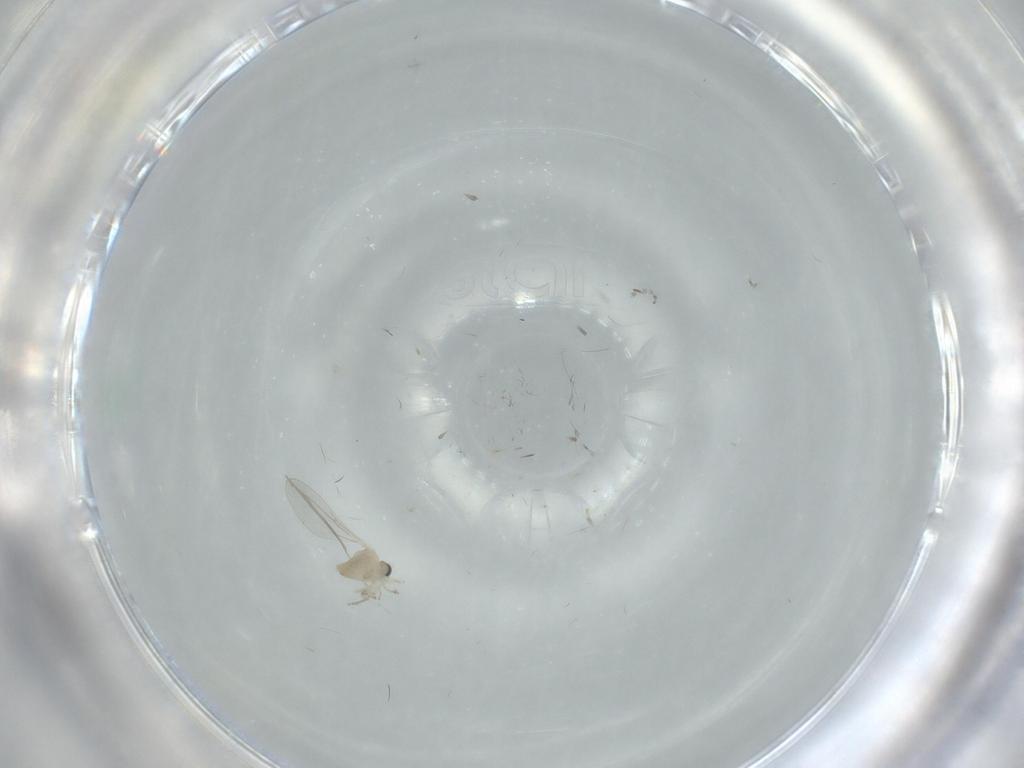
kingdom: Animalia
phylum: Arthropoda
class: Insecta
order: Diptera
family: Cecidomyiidae
